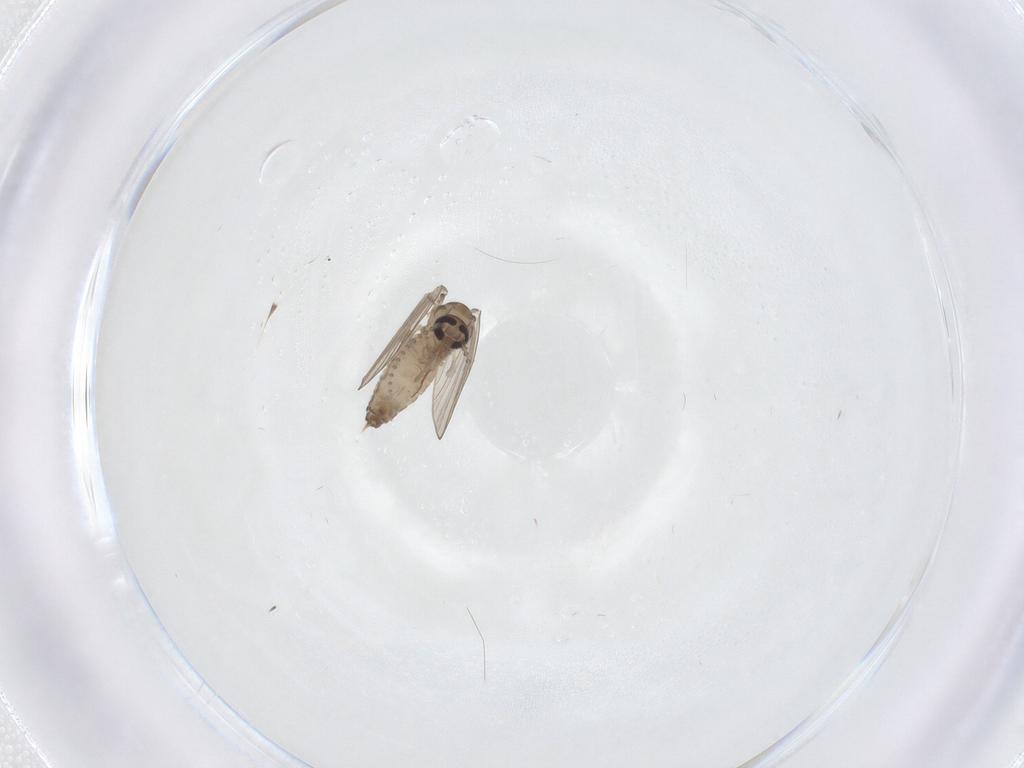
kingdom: Animalia
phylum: Arthropoda
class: Insecta
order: Diptera
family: Psychodidae
